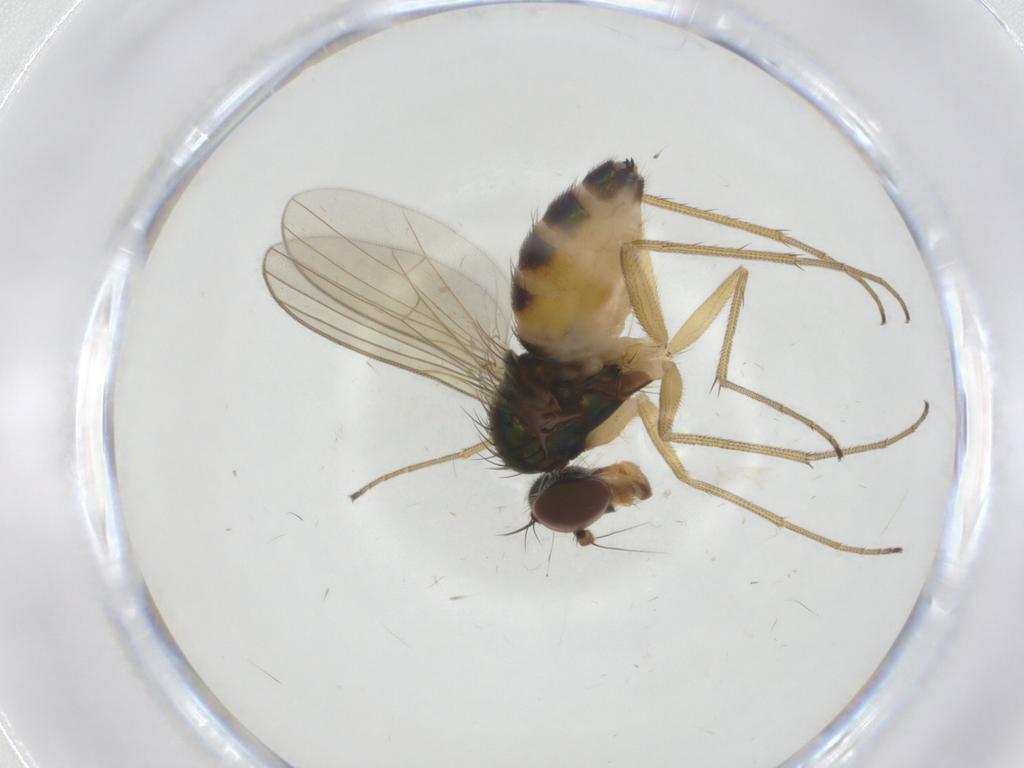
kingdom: Animalia
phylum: Arthropoda
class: Insecta
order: Diptera
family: Dolichopodidae
